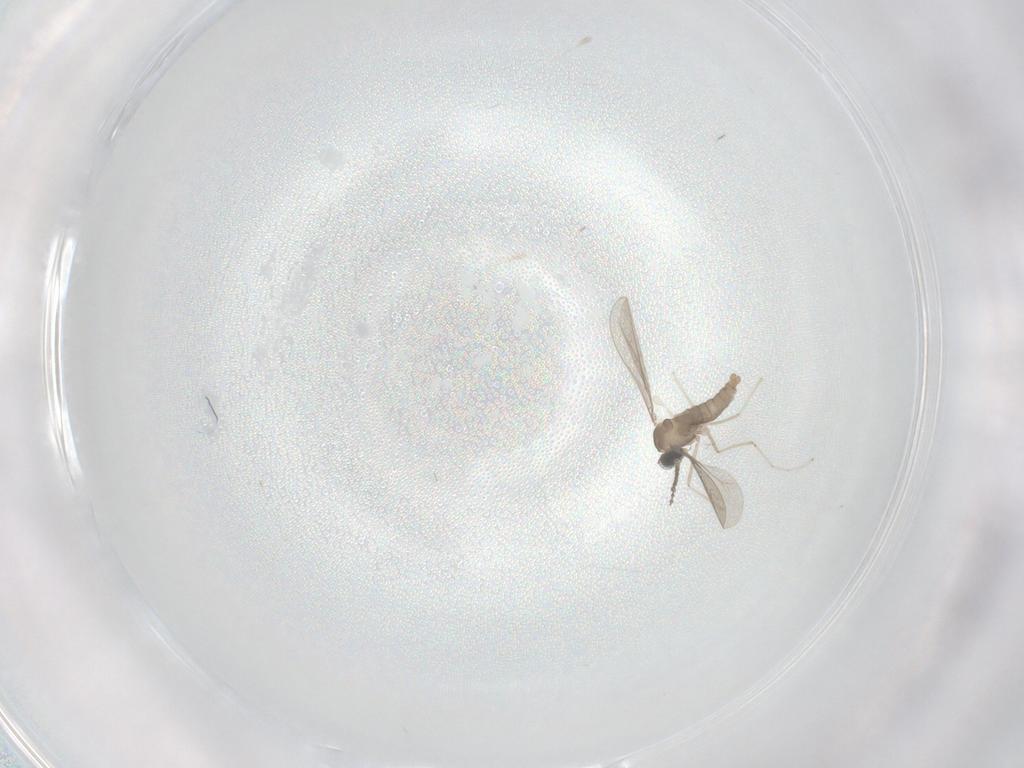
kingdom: Animalia
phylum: Arthropoda
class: Insecta
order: Diptera
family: Cecidomyiidae
